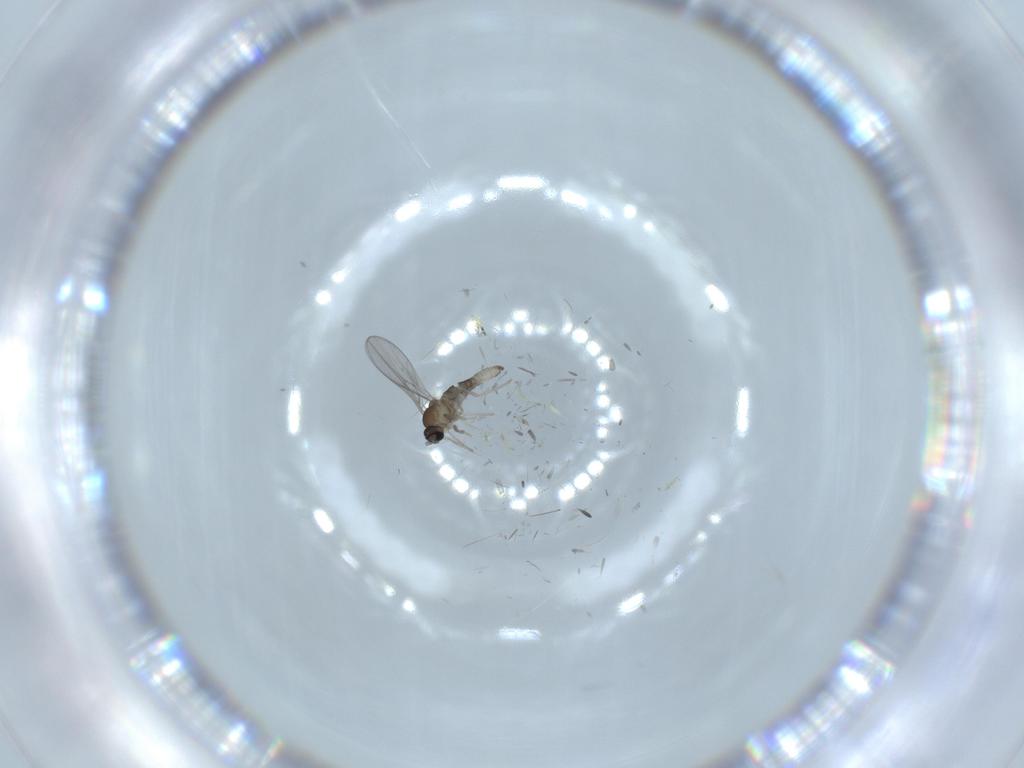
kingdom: Animalia
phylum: Arthropoda
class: Insecta
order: Diptera
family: Cecidomyiidae
